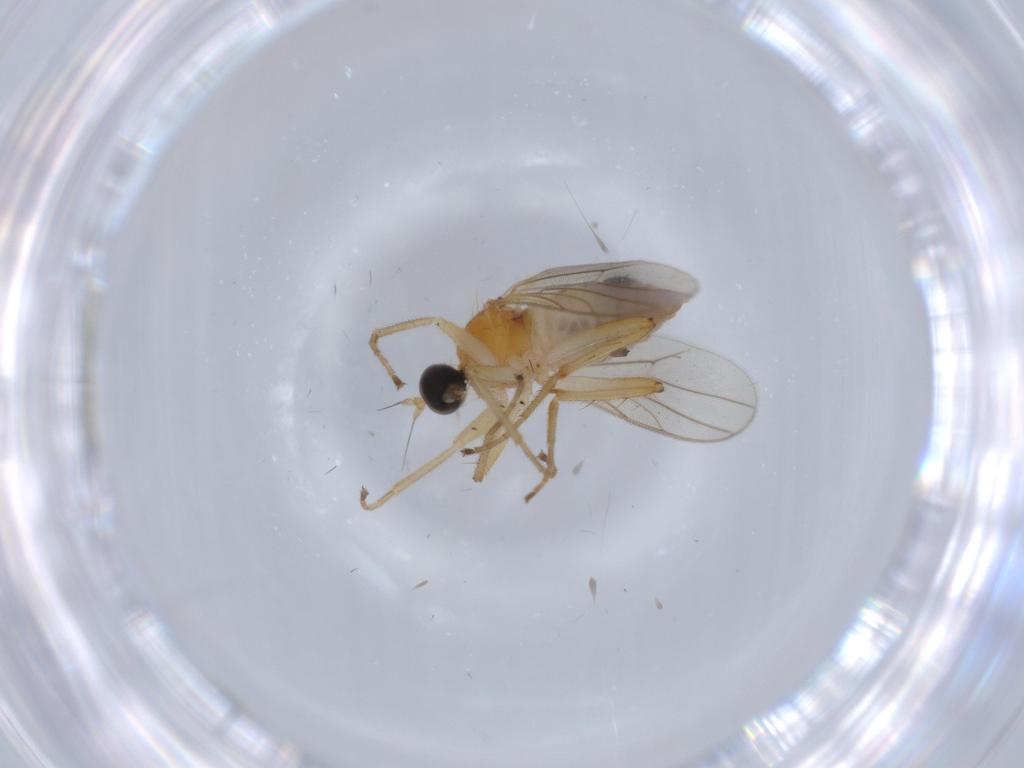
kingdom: Animalia
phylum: Arthropoda
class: Insecta
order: Diptera
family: Hybotidae
